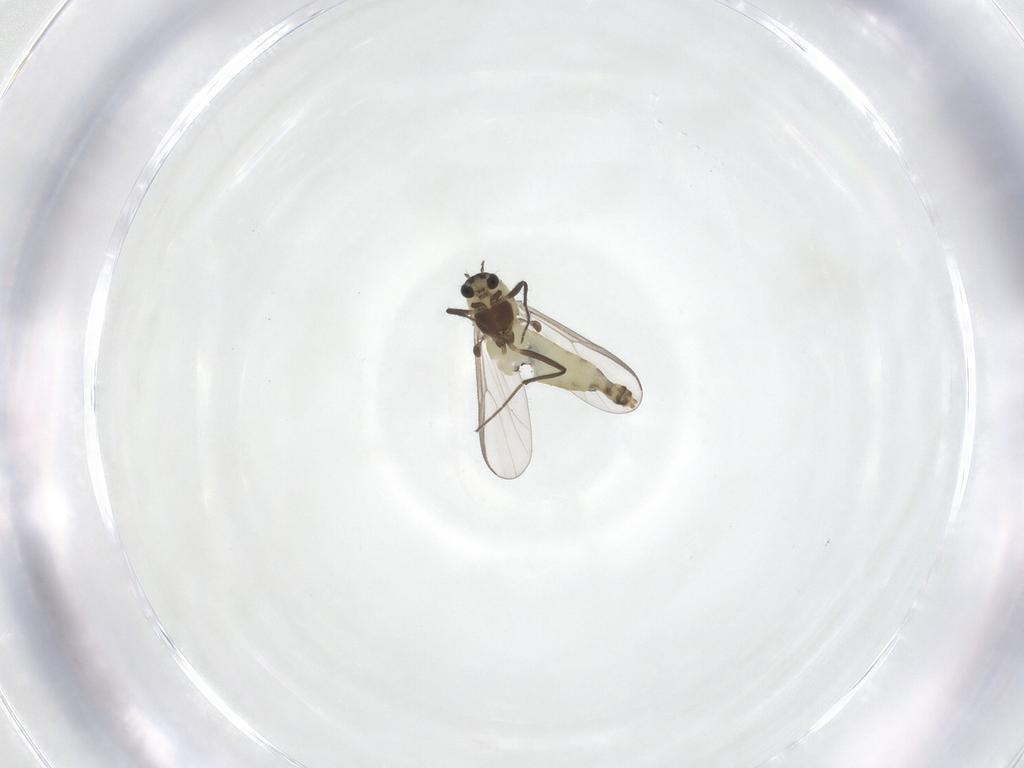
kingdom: Animalia
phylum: Arthropoda
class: Insecta
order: Diptera
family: Chironomidae
